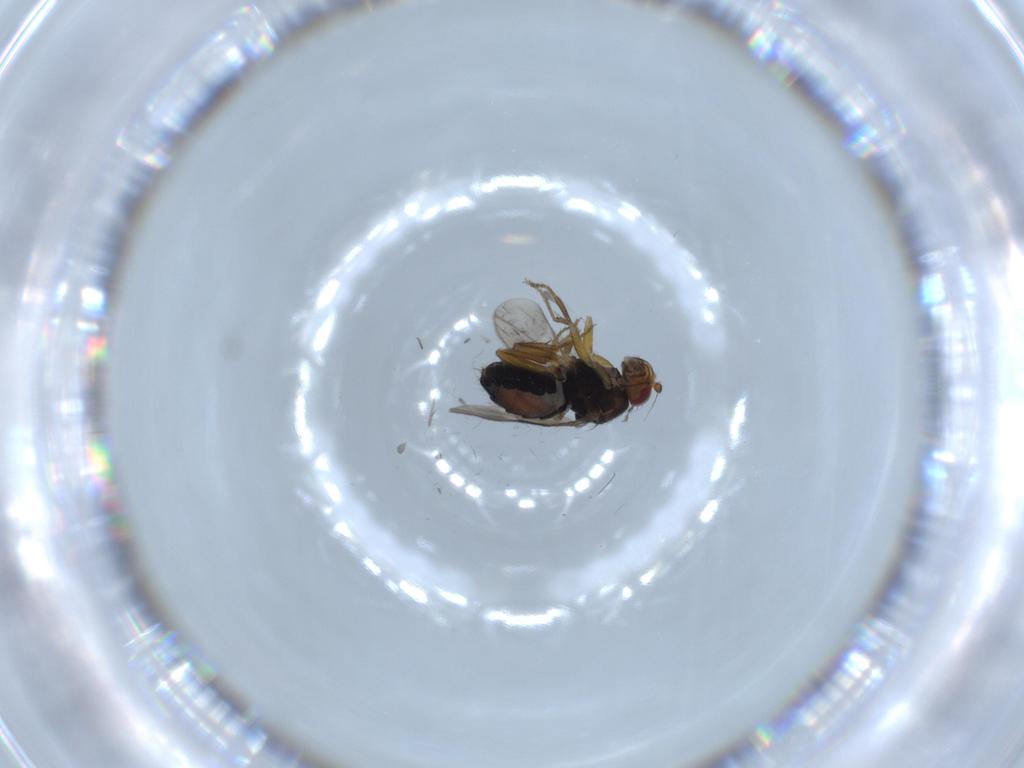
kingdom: Animalia
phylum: Arthropoda
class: Insecta
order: Diptera
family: Sphaeroceridae
